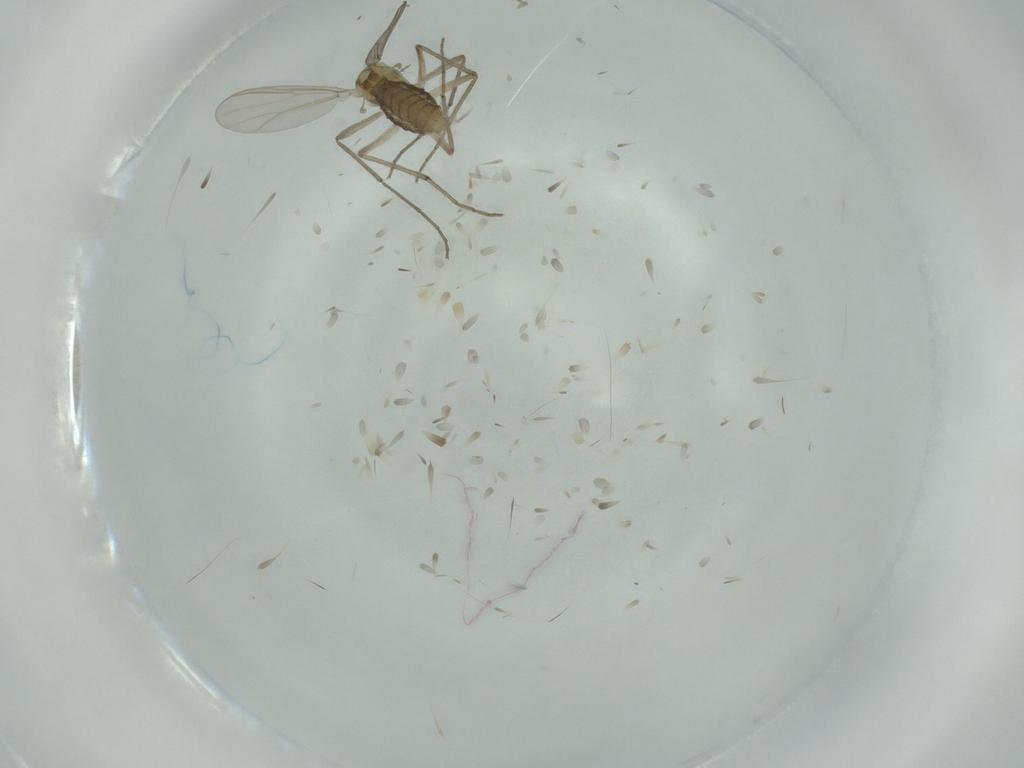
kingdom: Animalia
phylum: Arthropoda
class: Insecta
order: Diptera
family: Chironomidae
